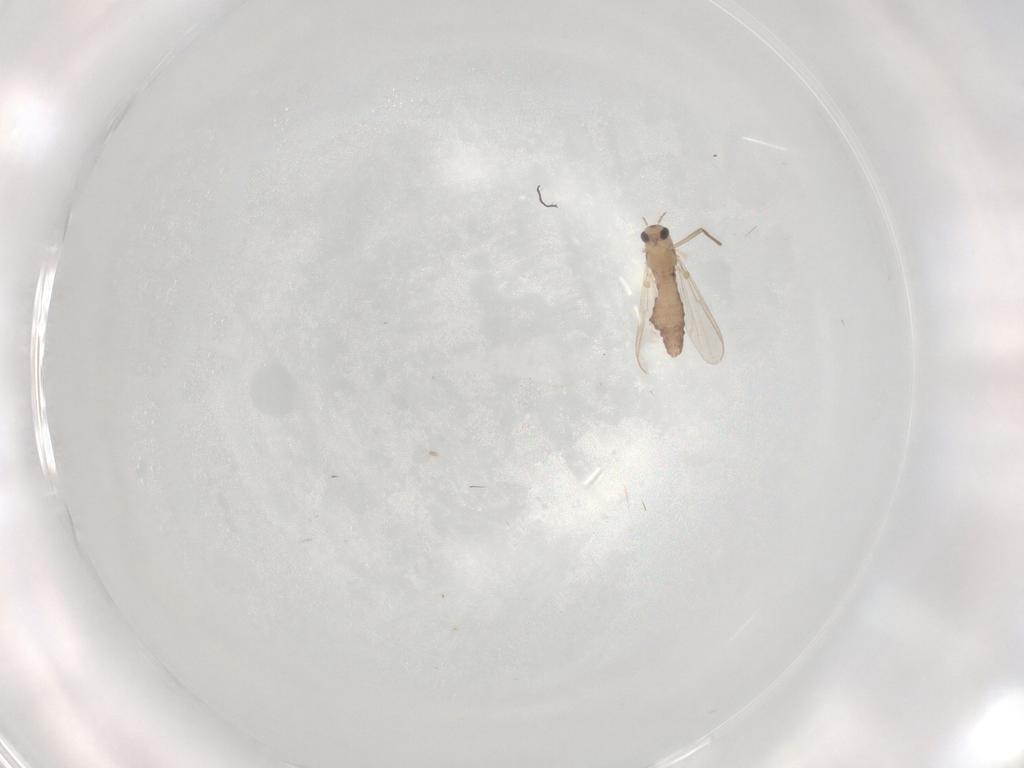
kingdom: Animalia
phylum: Arthropoda
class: Insecta
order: Diptera
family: Chironomidae
